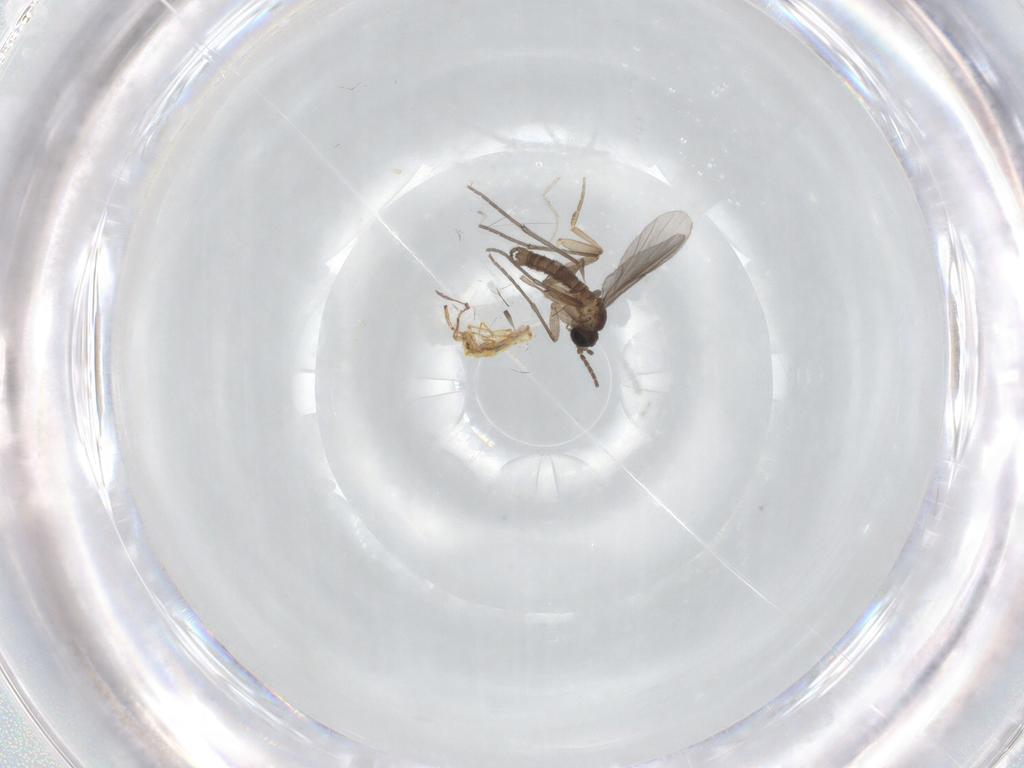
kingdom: Animalia
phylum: Arthropoda
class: Insecta
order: Diptera
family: Sciaridae
